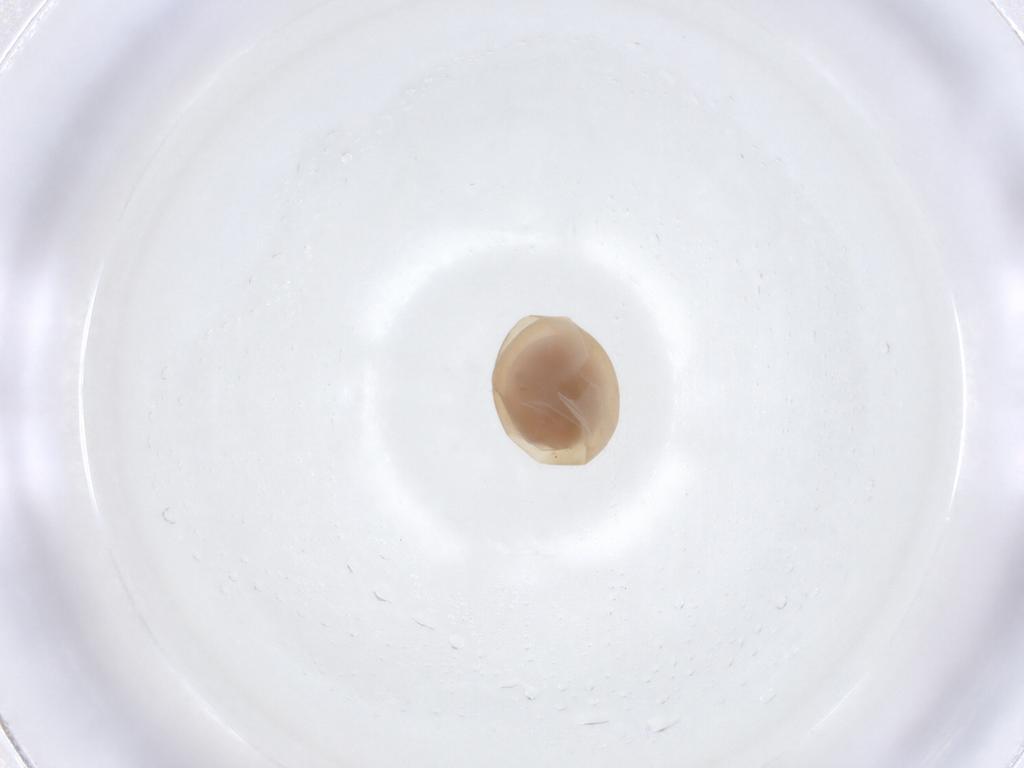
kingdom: Animalia
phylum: Arthropoda
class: Insecta
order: Hymenoptera
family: Scelionidae
